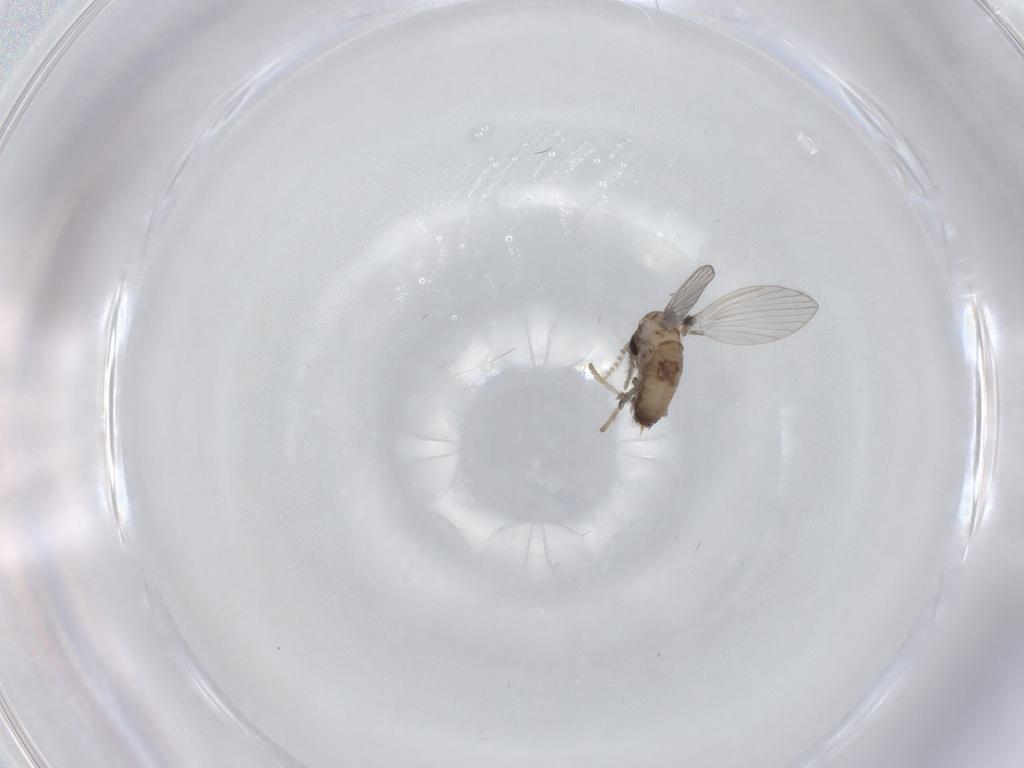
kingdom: Animalia
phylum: Arthropoda
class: Insecta
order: Diptera
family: Psychodidae
